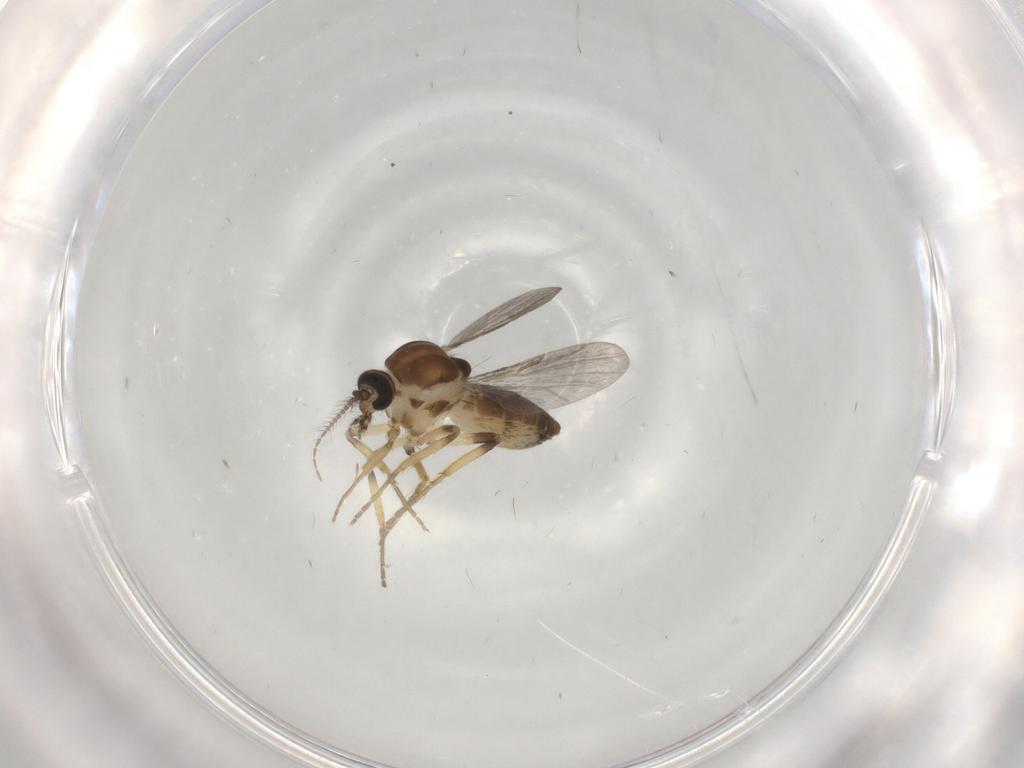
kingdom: Animalia
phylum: Arthropoda
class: Insecta
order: Diptera
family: Ceratopogonidae
